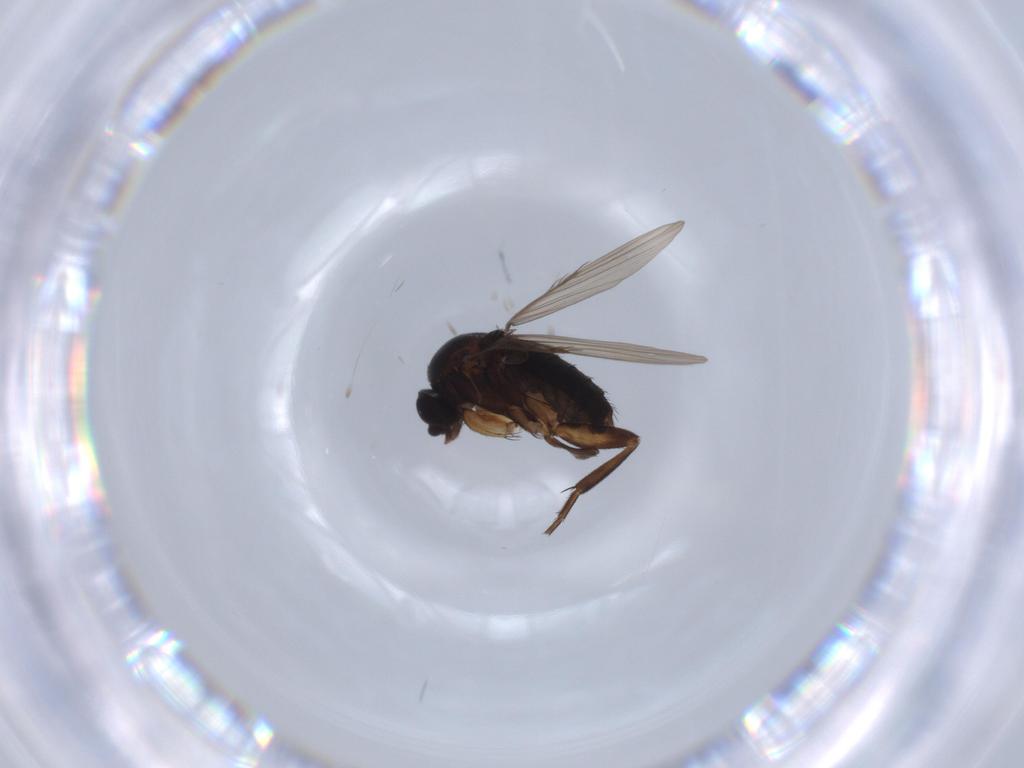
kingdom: Animalia
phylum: Arthropoda
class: Insecta
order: Diptera
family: Phoridae
